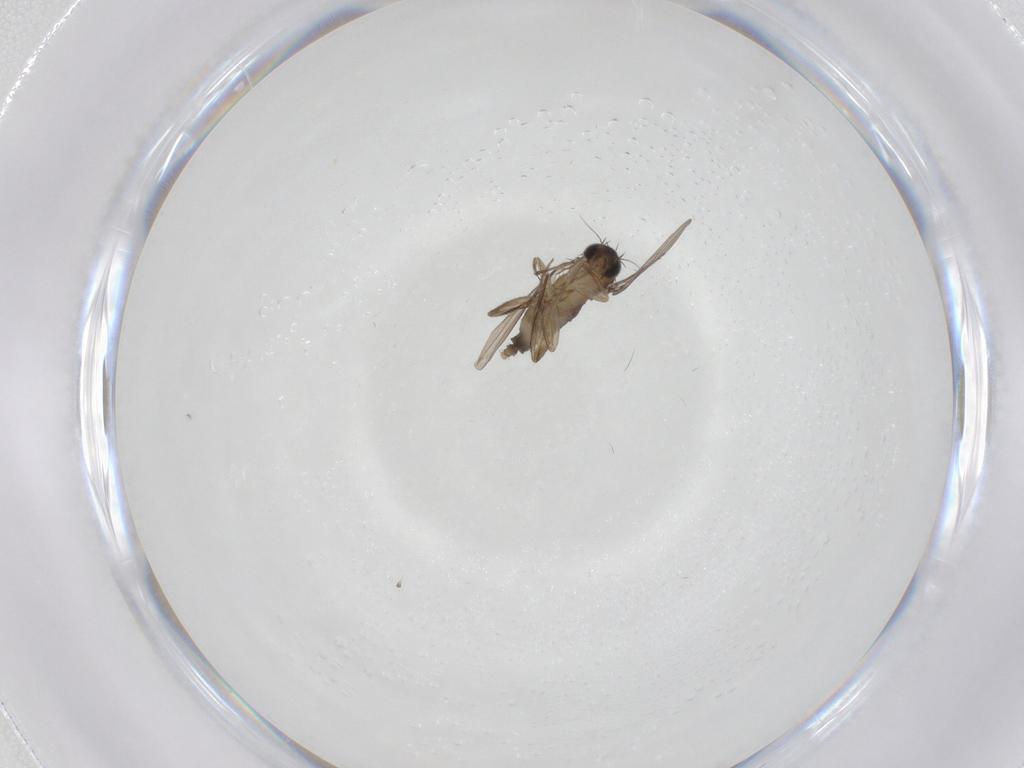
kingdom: Animalia
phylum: Arthropoda
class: Insecta
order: Diptera
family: Phoridae
